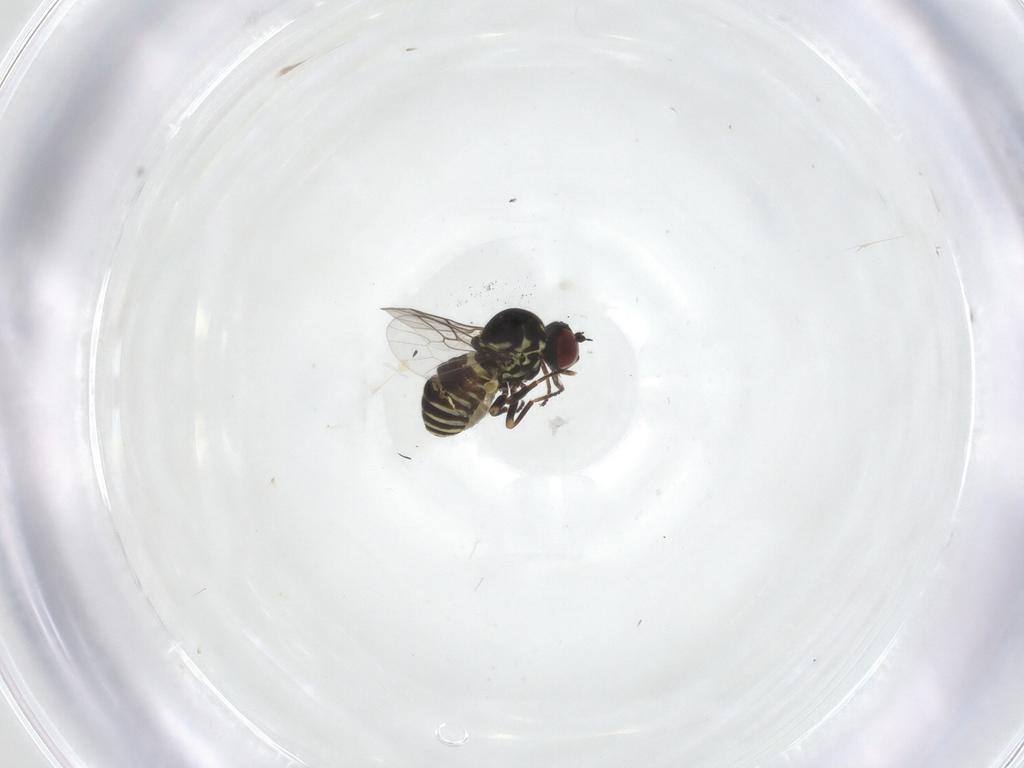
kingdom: Animalia
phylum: Arthropoda
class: Insecta
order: Diptera
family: Mythicomyiidae
